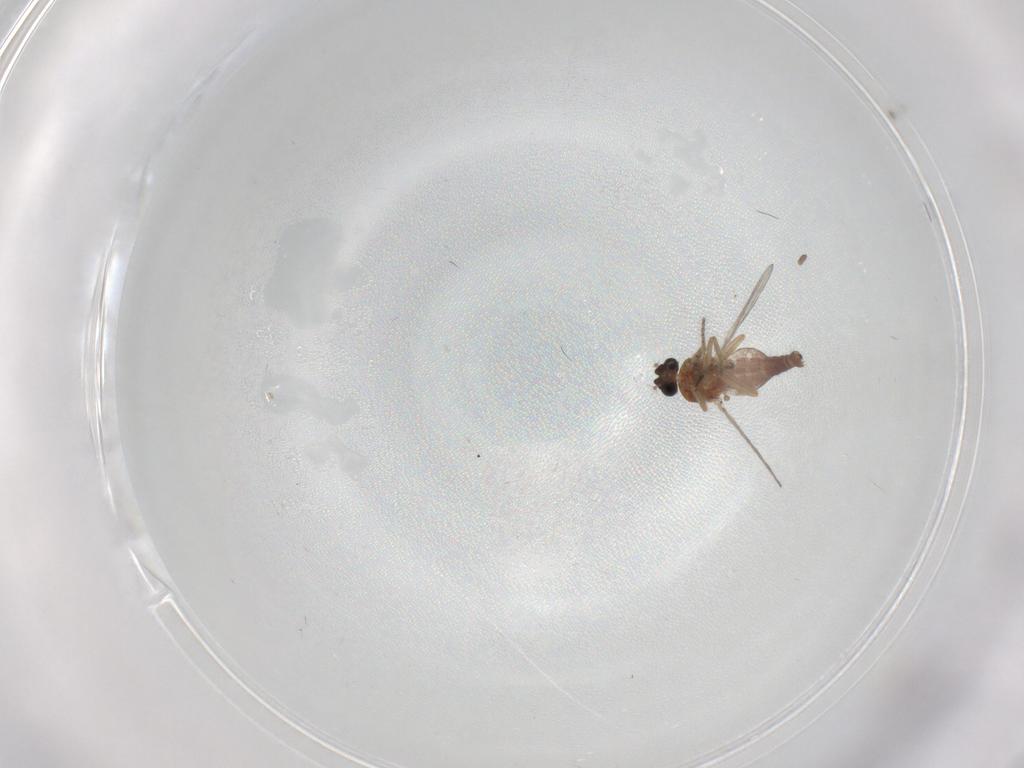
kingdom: Animalia
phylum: Arthropoda
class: Insecta
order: Diptera
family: Ceratopogonidae
